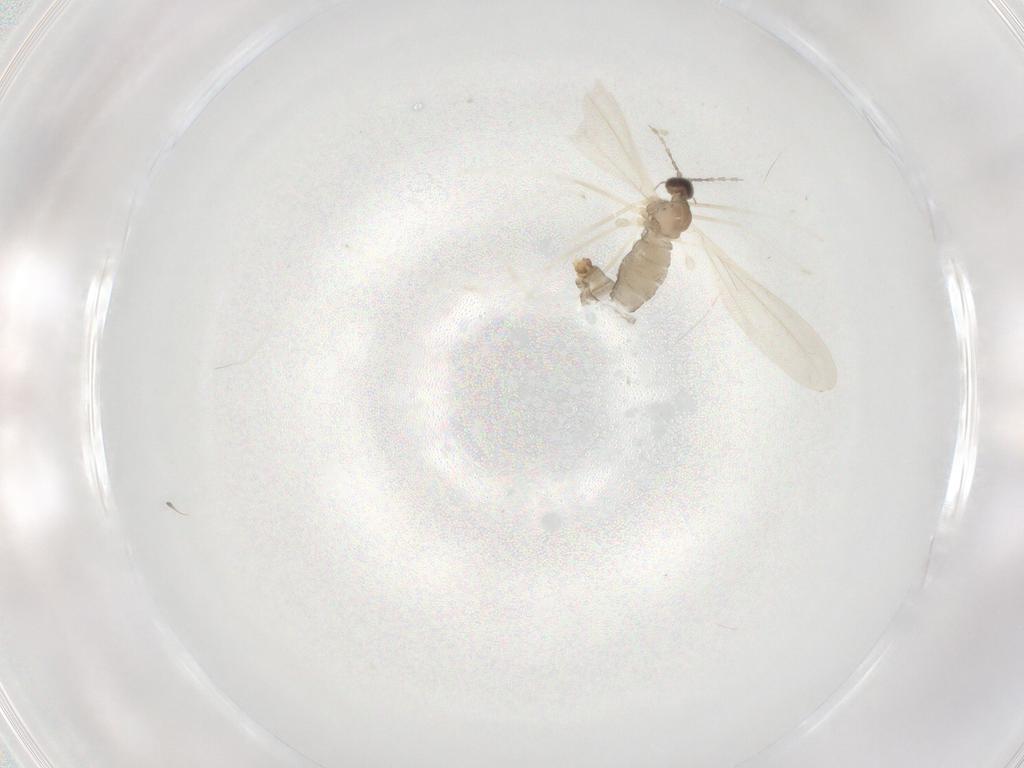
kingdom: Animalia
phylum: Arthropoda
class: Insecta
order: Diptera
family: Cecidomyiidae
